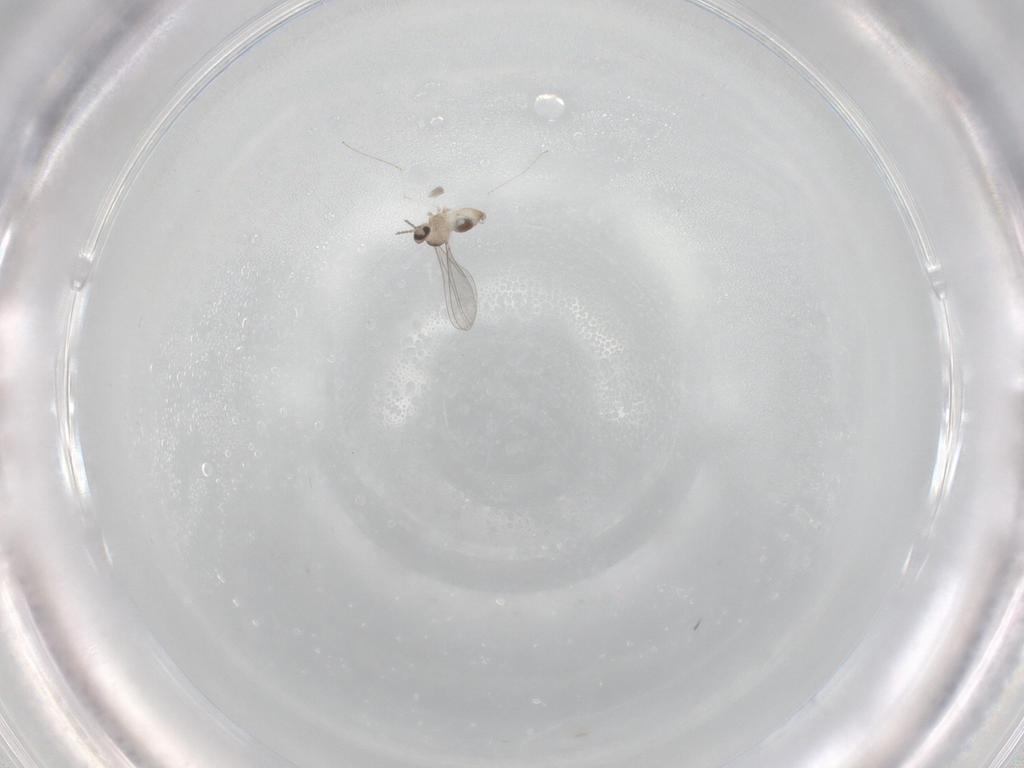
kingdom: Animalia
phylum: Arthropoda
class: Insecta
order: Diptera
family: Cecidomyiidae
